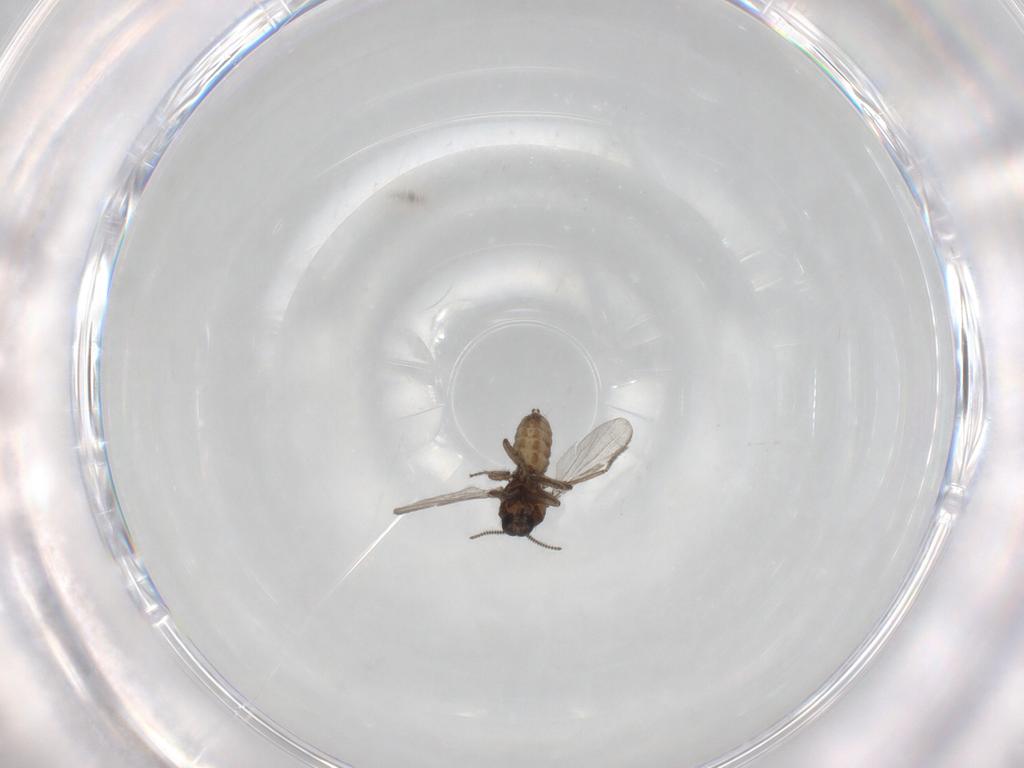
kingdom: Animalia
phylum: Arthropoda
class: Insecta
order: Diptera
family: Ceratopogonidae
